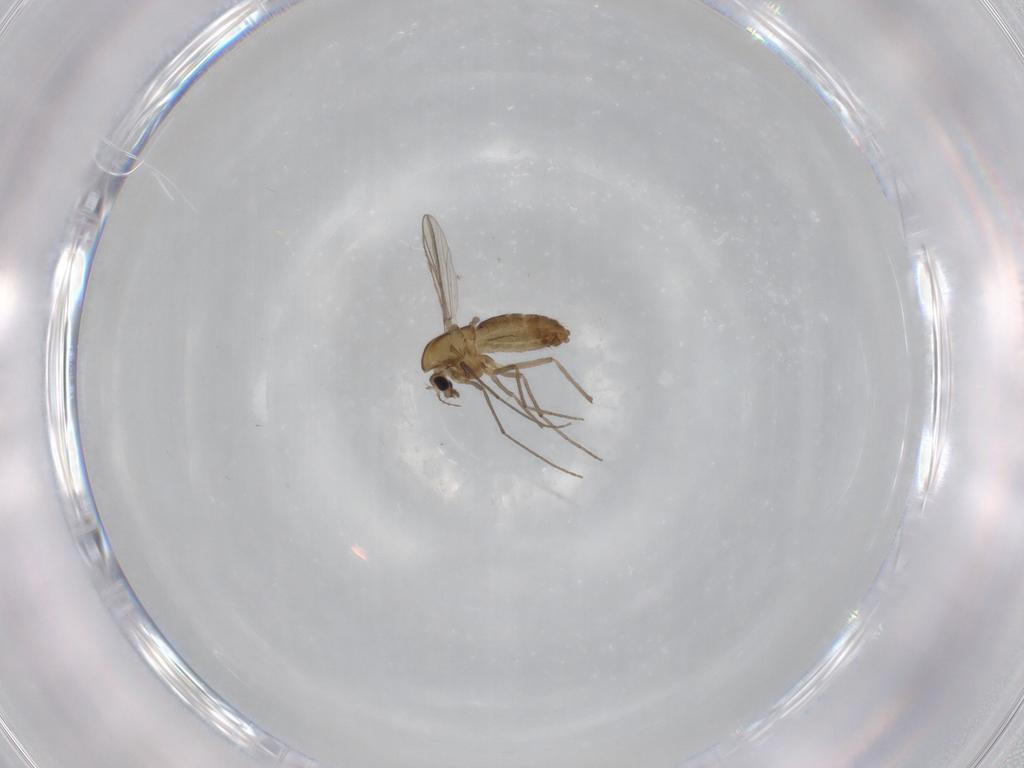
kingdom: Animalia
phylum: Arthropoda
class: Insecta
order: Diptera
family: Chironomidae
